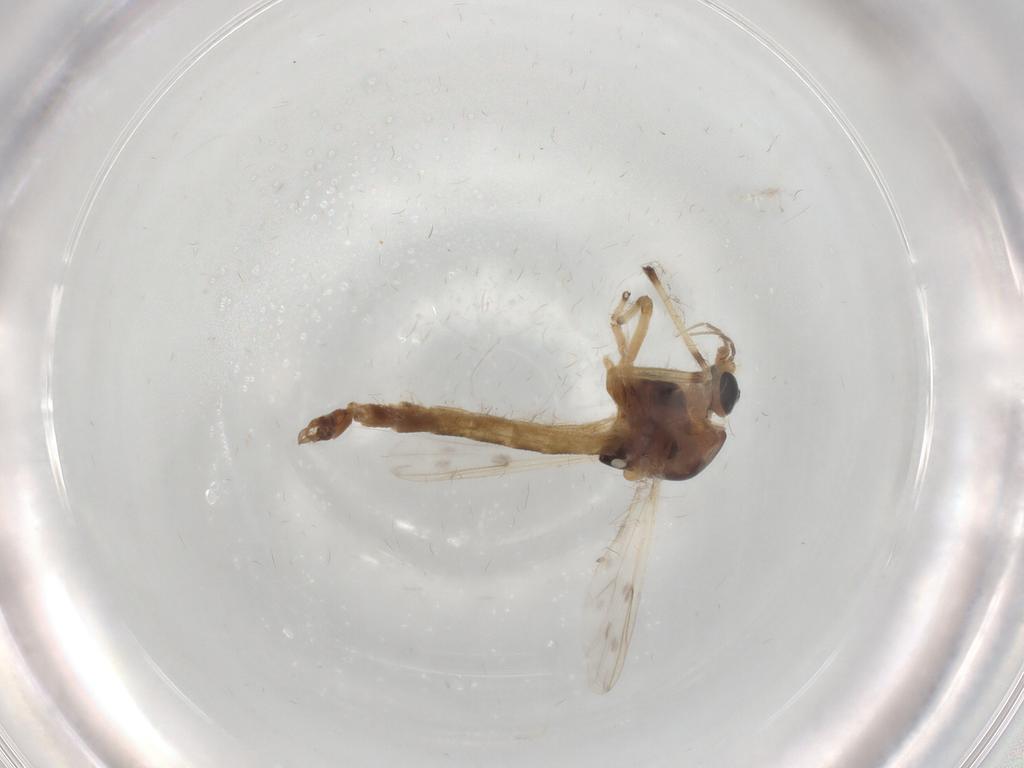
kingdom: Animalia
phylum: Arthropoda
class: Insecta
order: Diptera
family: Chironomidae
